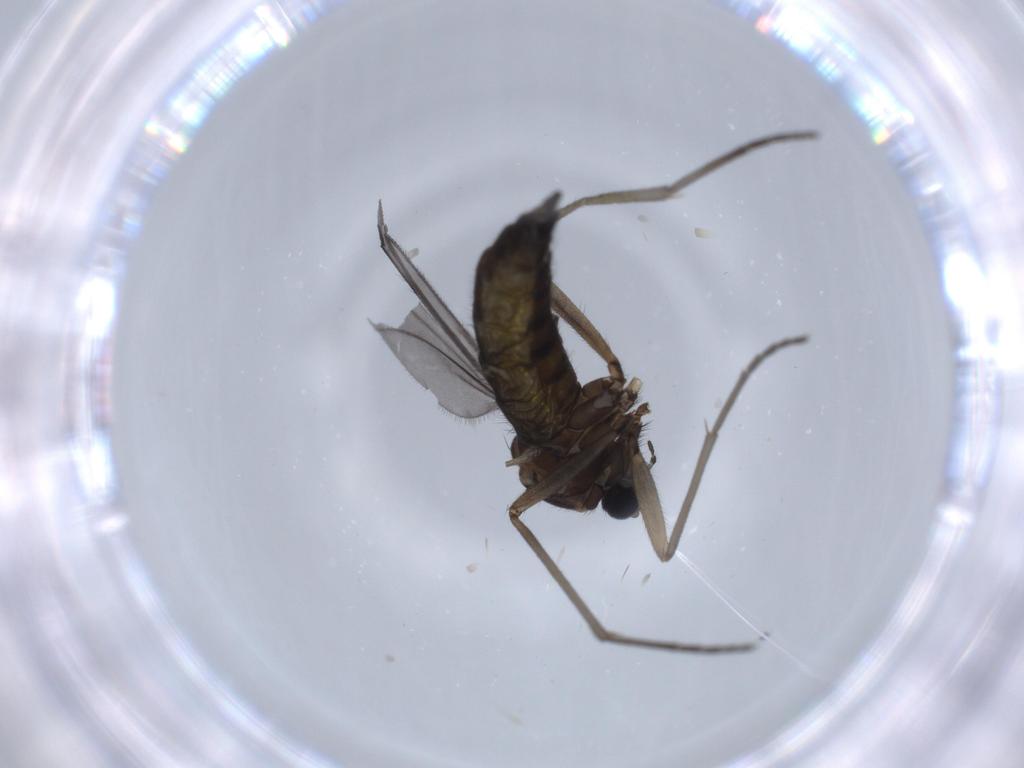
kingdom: Animalia
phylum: Arthropoda
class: Insecta
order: Diptera
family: Sciaridae
